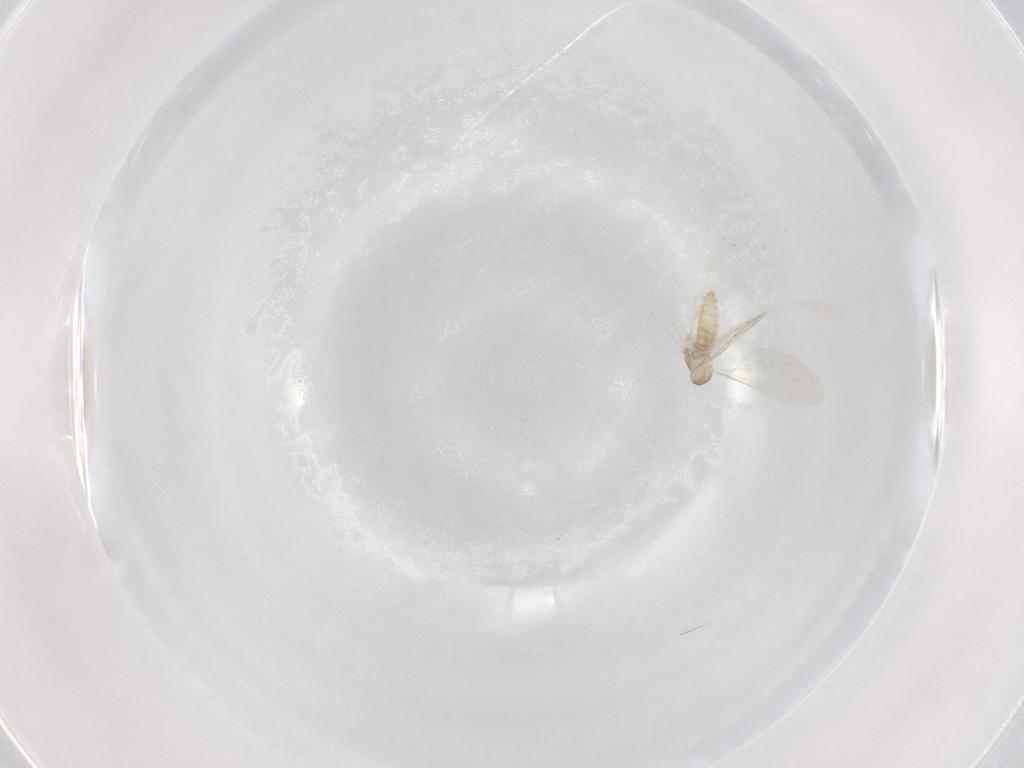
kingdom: Animalia
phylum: Arthropoda
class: Insecta
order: Diptera
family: Cecidomyiidae
